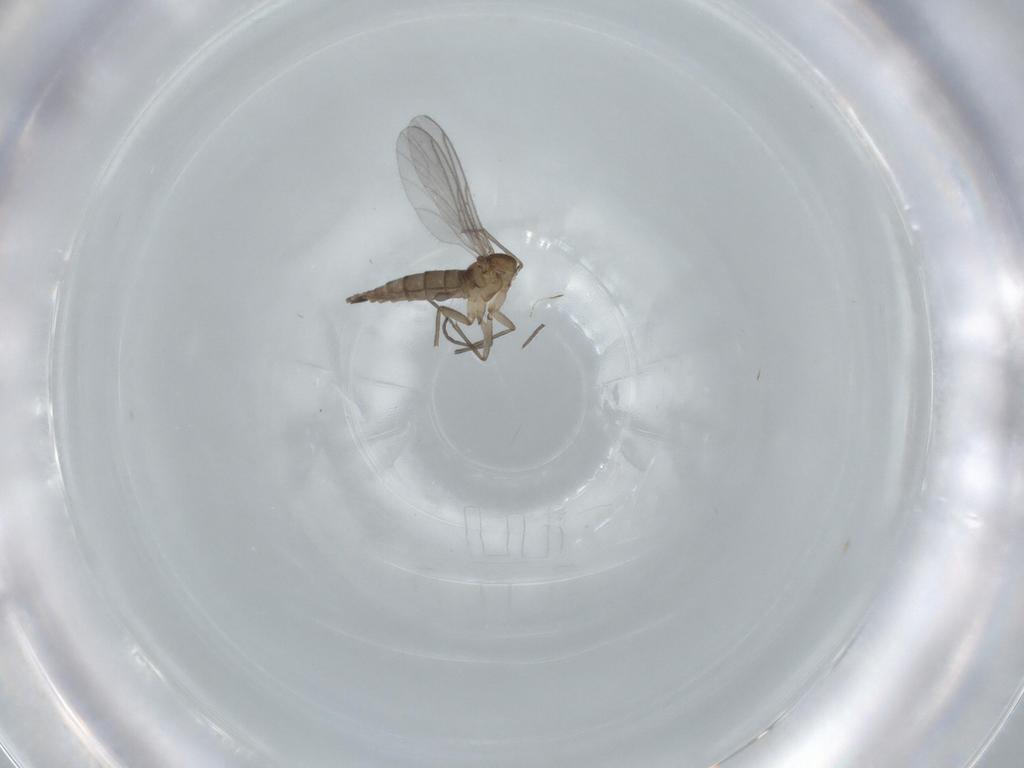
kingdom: Animalia
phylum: Arthropoda
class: Insecta
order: Diptera
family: Sciaridae
